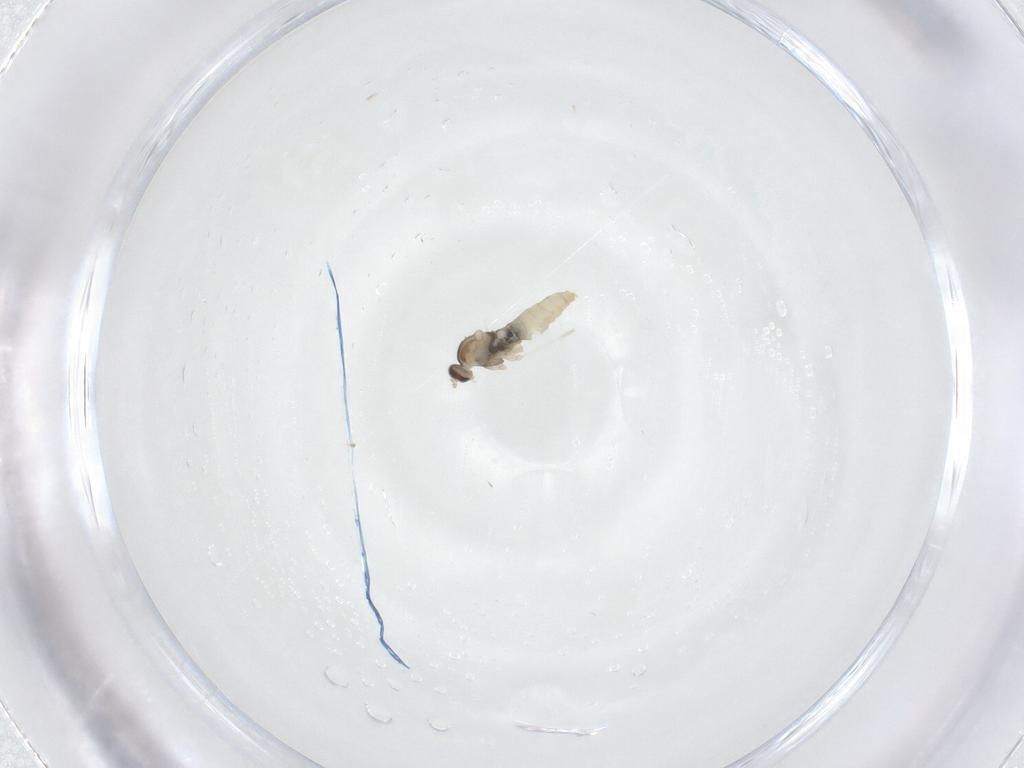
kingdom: Animalia
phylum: Arthropoda
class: Insecta
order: Diptera
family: Cecidomyiidae
